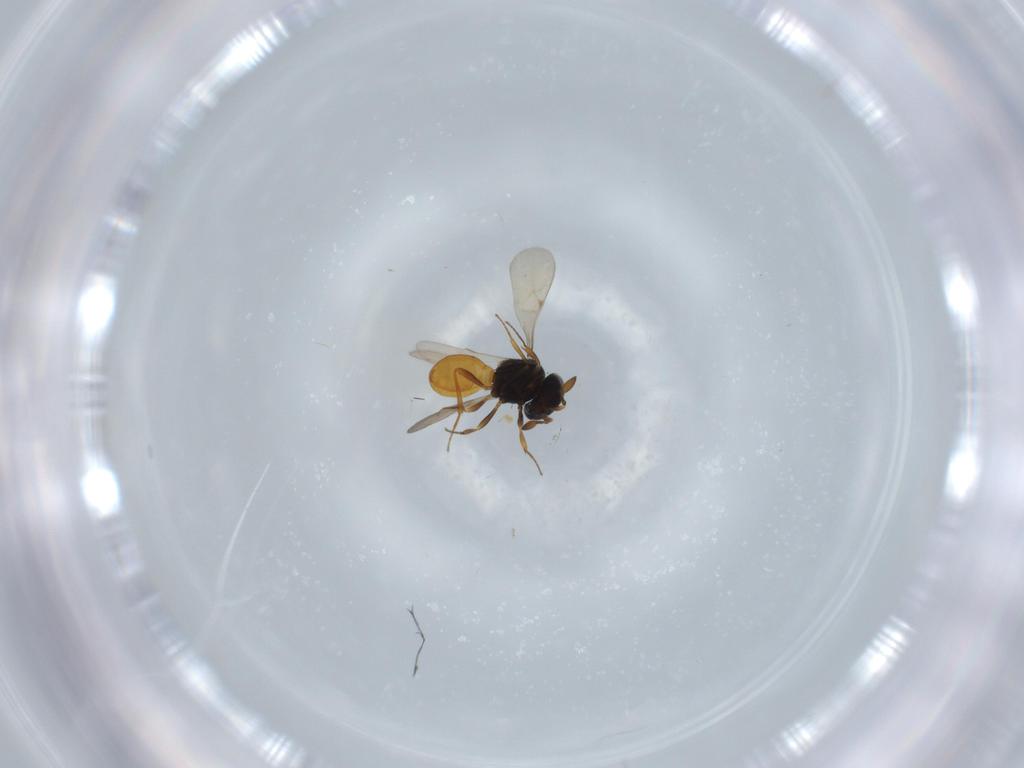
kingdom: Animalia
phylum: Arthropoda
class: Insecta
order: Hymenoptera
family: Scelionidae
